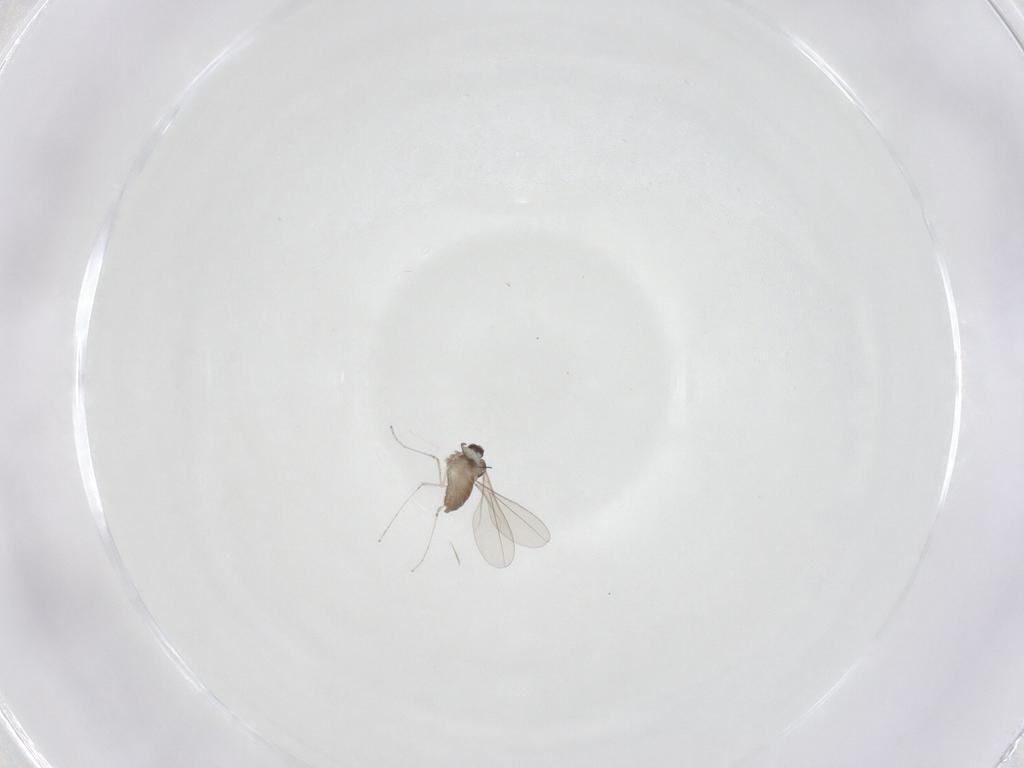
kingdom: Animalia
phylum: Arthropoda
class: Insecta
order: Diptera
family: Cecidomyiidae
